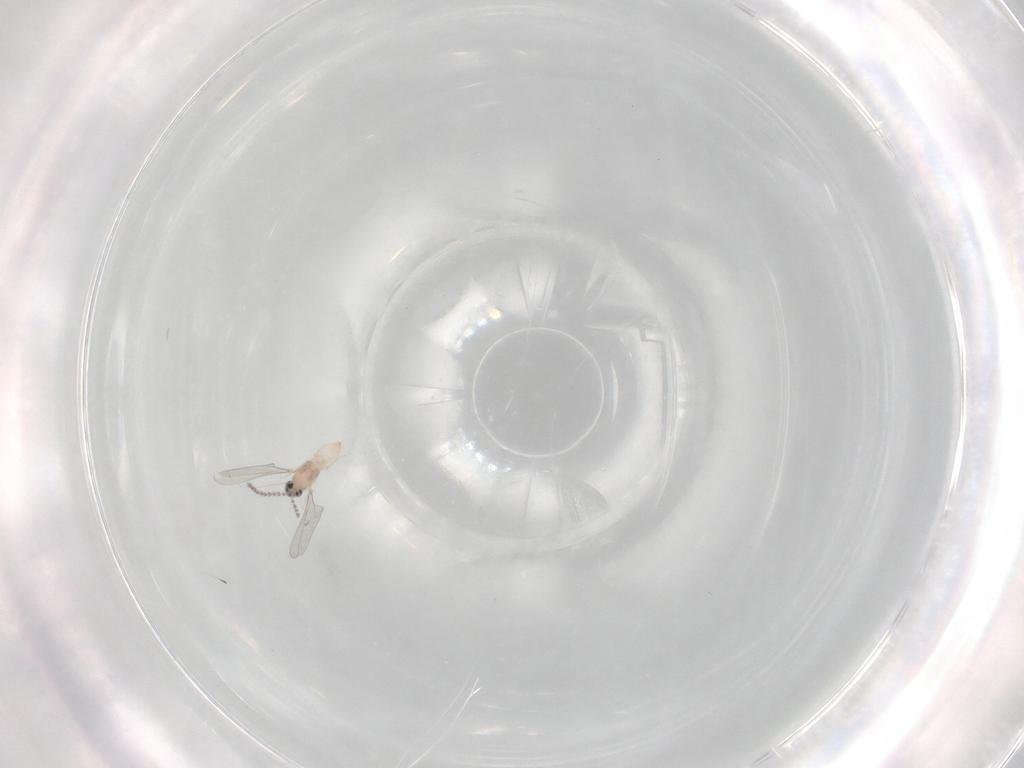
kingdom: Animalia
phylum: Arthropoda
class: Insecta
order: Diptera
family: Cecidomyiidae
